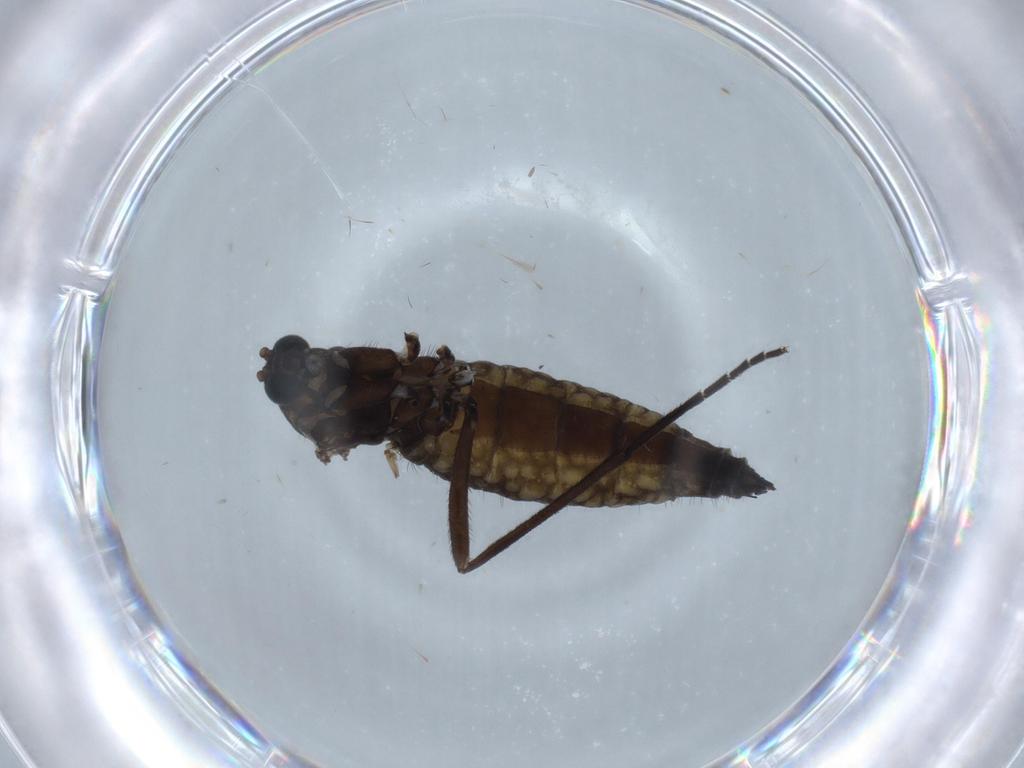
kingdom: Animalia
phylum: Arthropoda
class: Insecta
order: Diptera
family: Sciaridae
